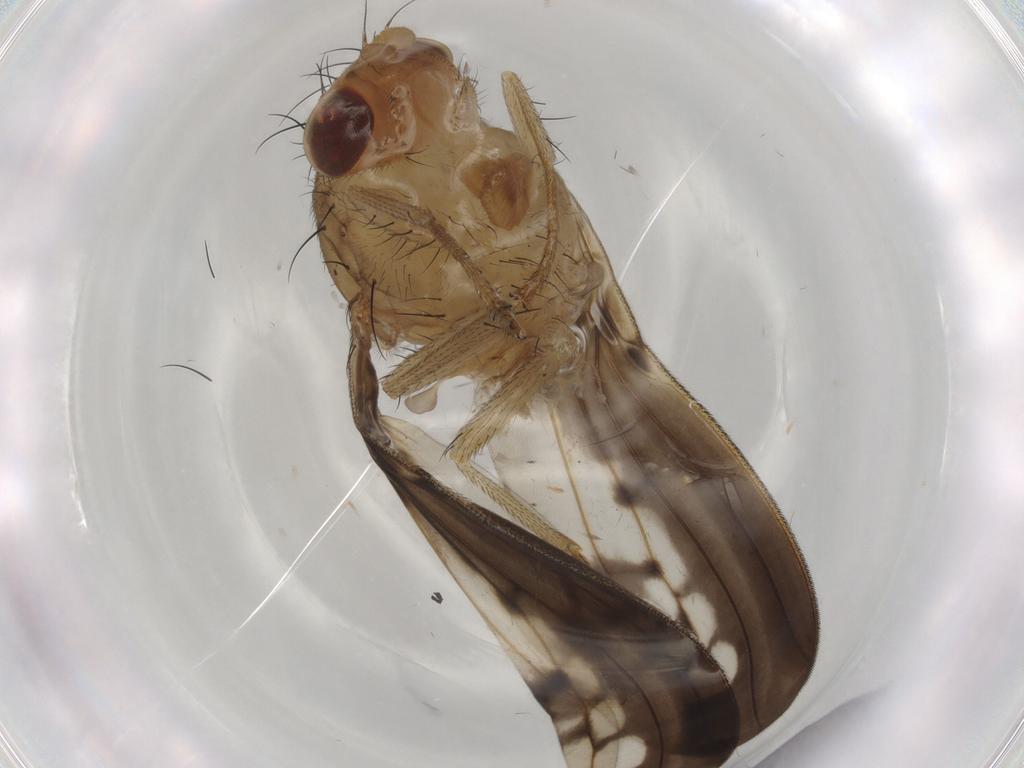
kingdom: Animalia
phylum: Arthropoda
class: Insecta
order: Diptera
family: Chironomidae
